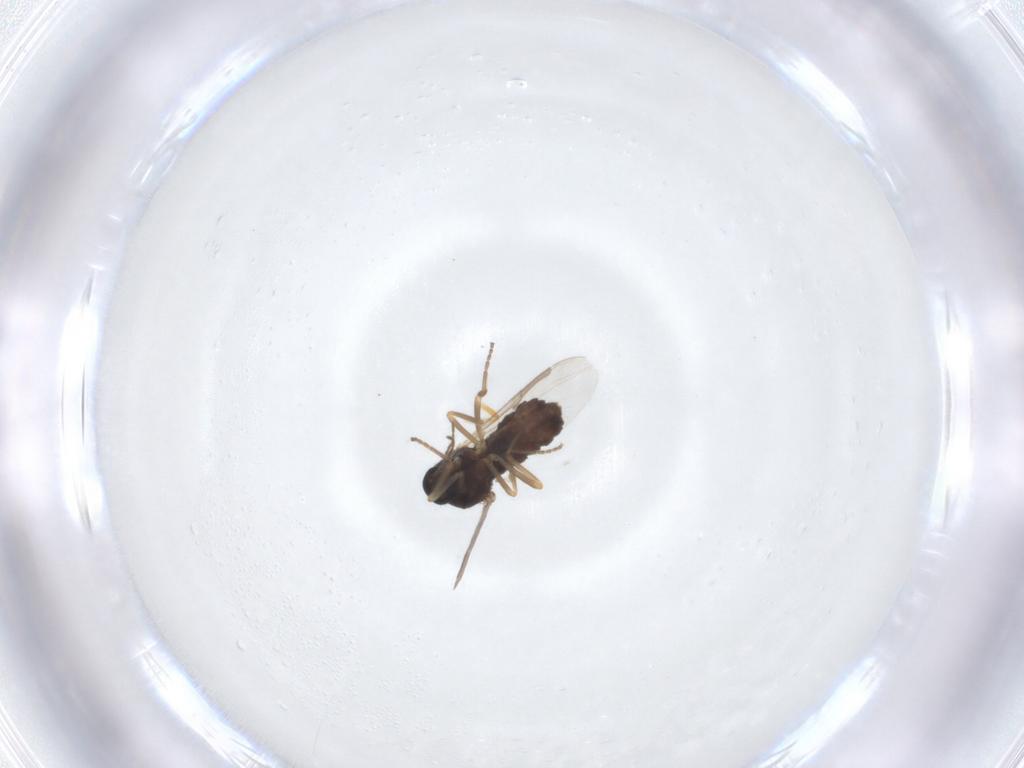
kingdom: Animalia
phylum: Arthropoda
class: Insecta
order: Diptera
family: Ceratopogonidae
